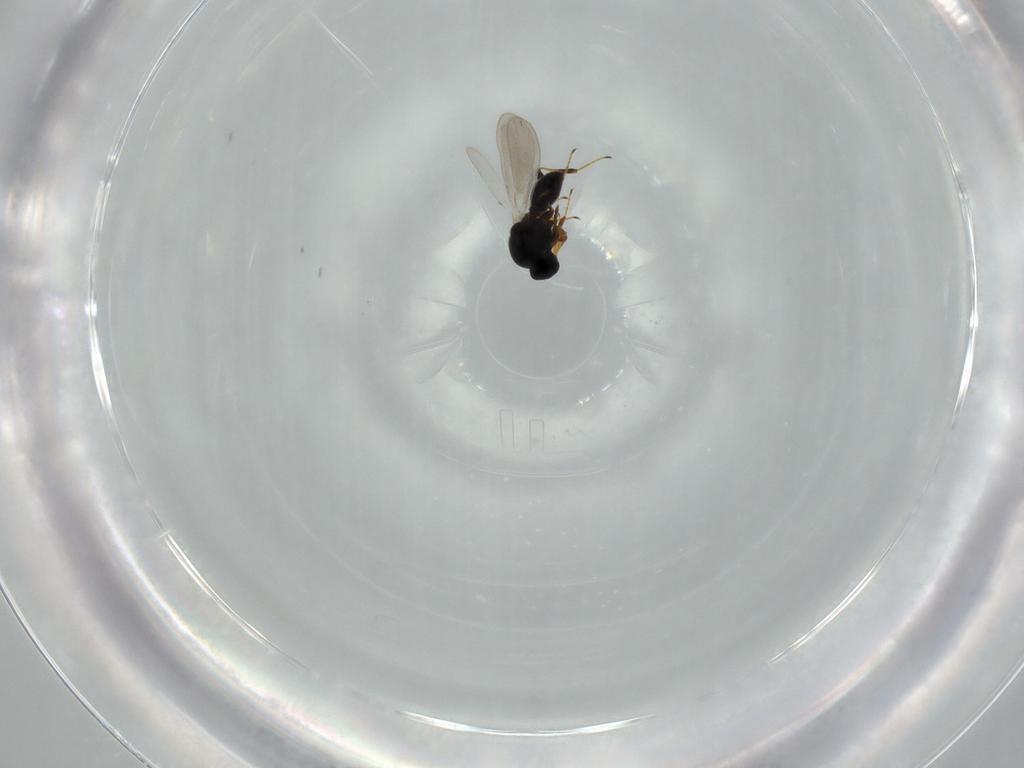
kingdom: Animalia
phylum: Arthropoda
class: Insecta
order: Hymenoptera
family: Platygastridae
